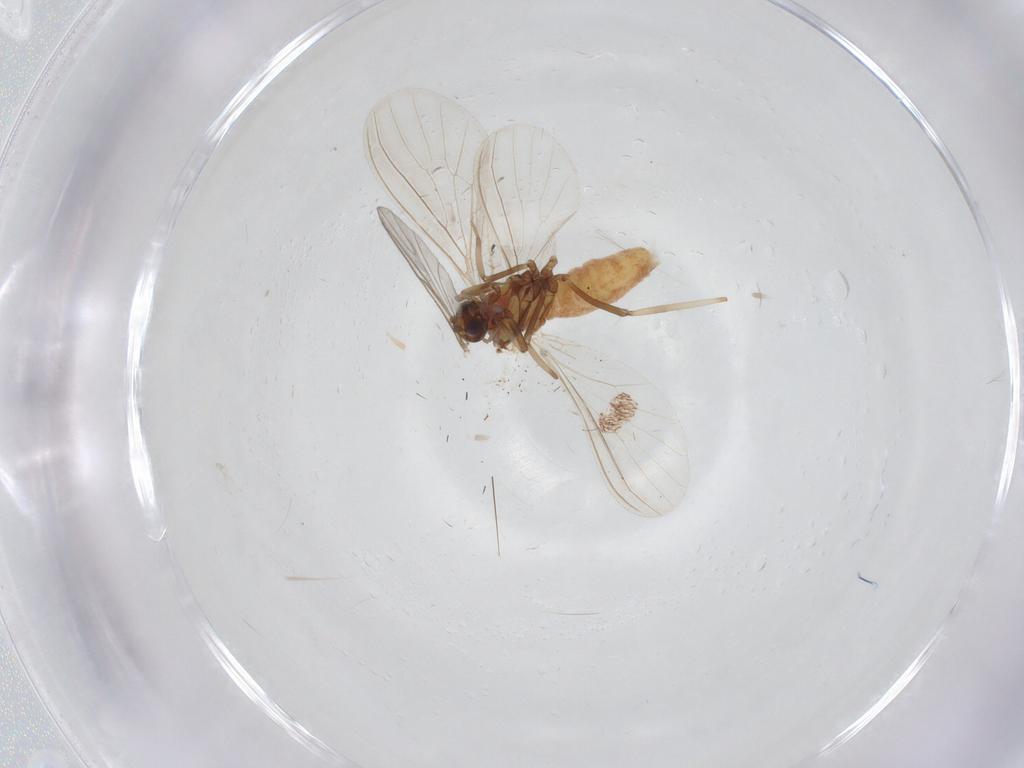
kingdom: Animalia
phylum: Arthropoda
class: Insecta
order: Neuroptera
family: Coniopterygidae
